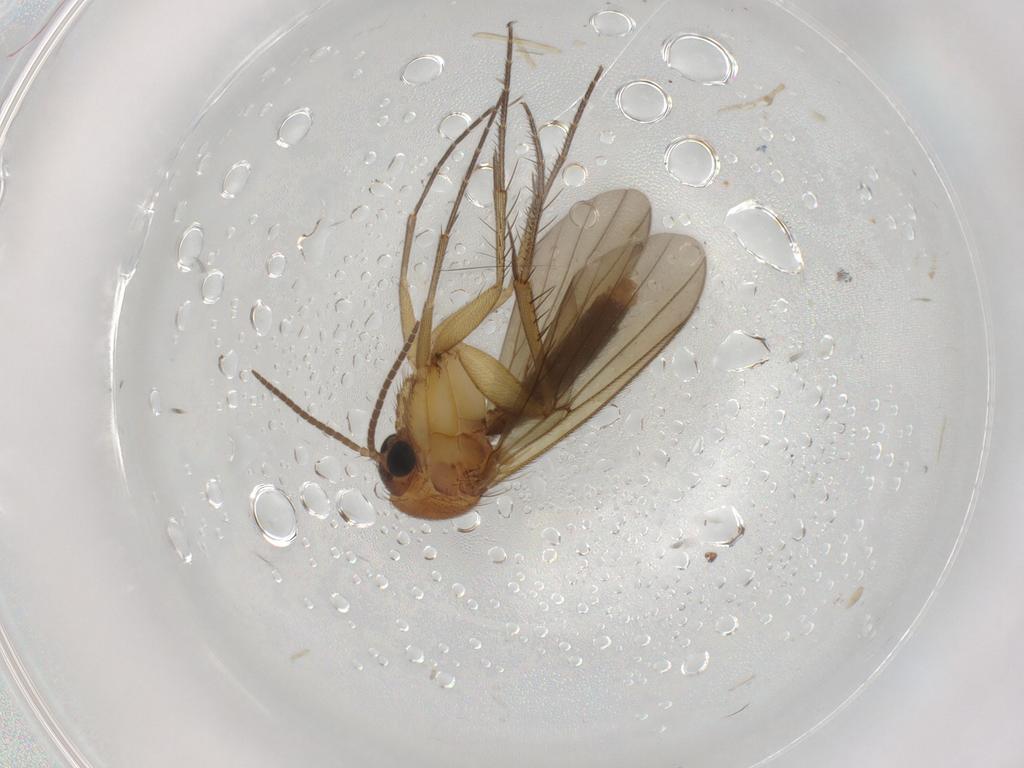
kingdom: Animalia
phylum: Arthropoda
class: Insecta
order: Diptera
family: Chironomidae
